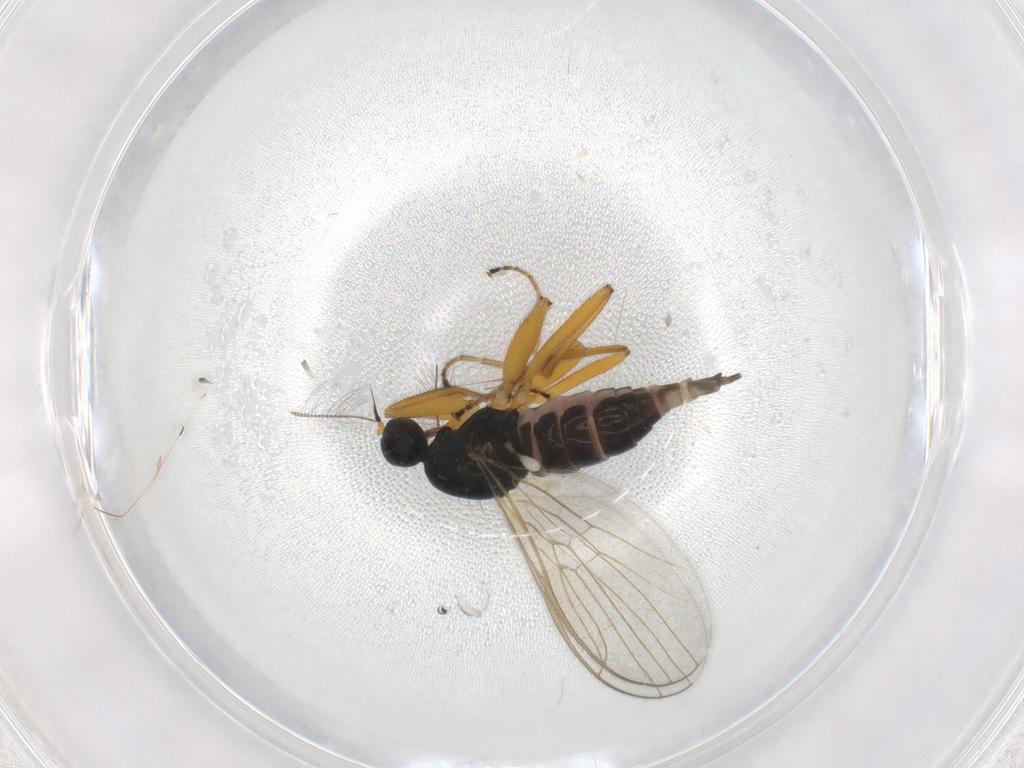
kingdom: Animalia
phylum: Arthropoda
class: Insecta
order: Diptera
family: Hybotidae
